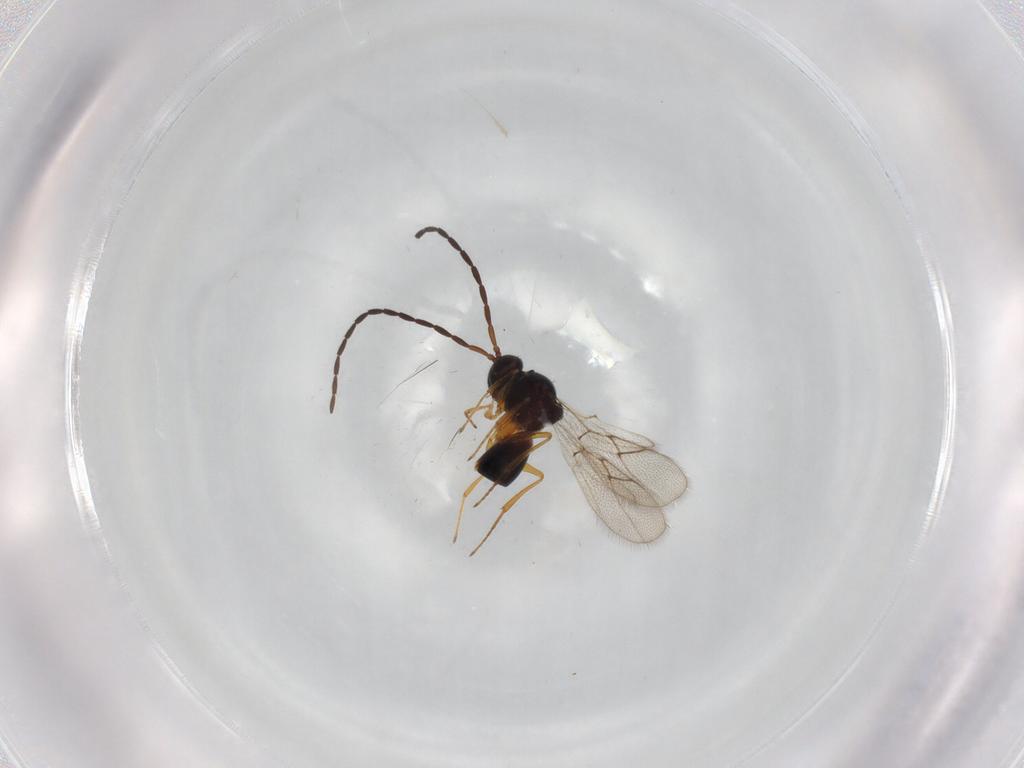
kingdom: Animalia
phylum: Arthropoda
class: Insecta
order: Hymenoptera
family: Figitidae
